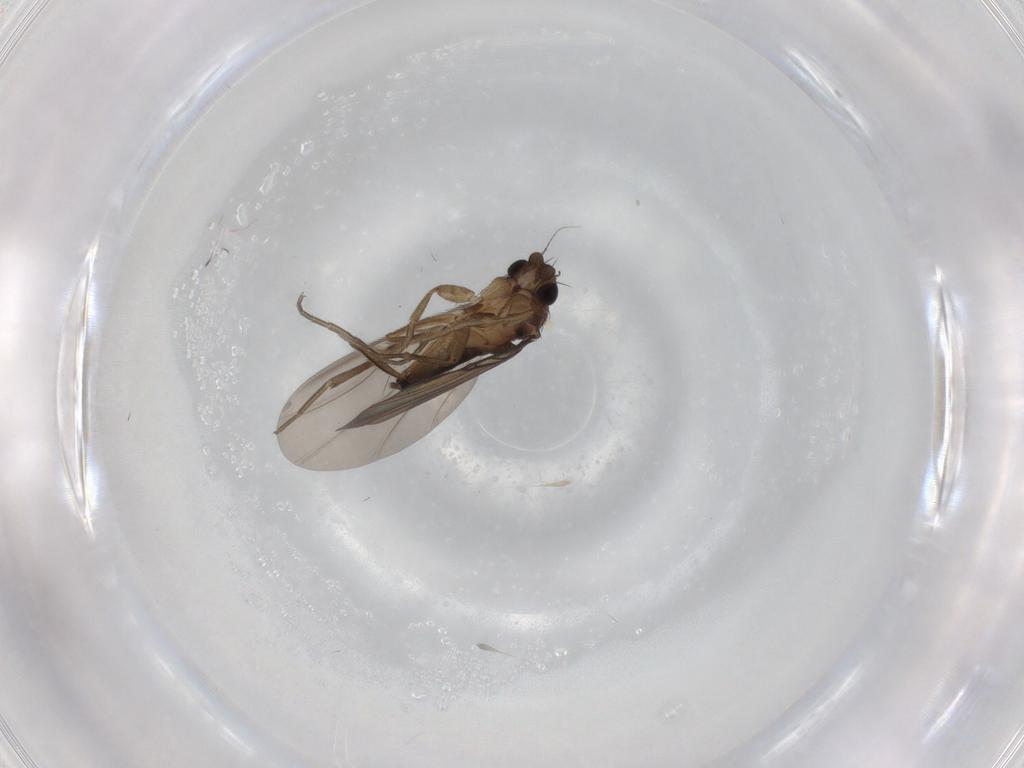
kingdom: Animalia
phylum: Arthropoda
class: Insecta
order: Diptera
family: Phoridae
